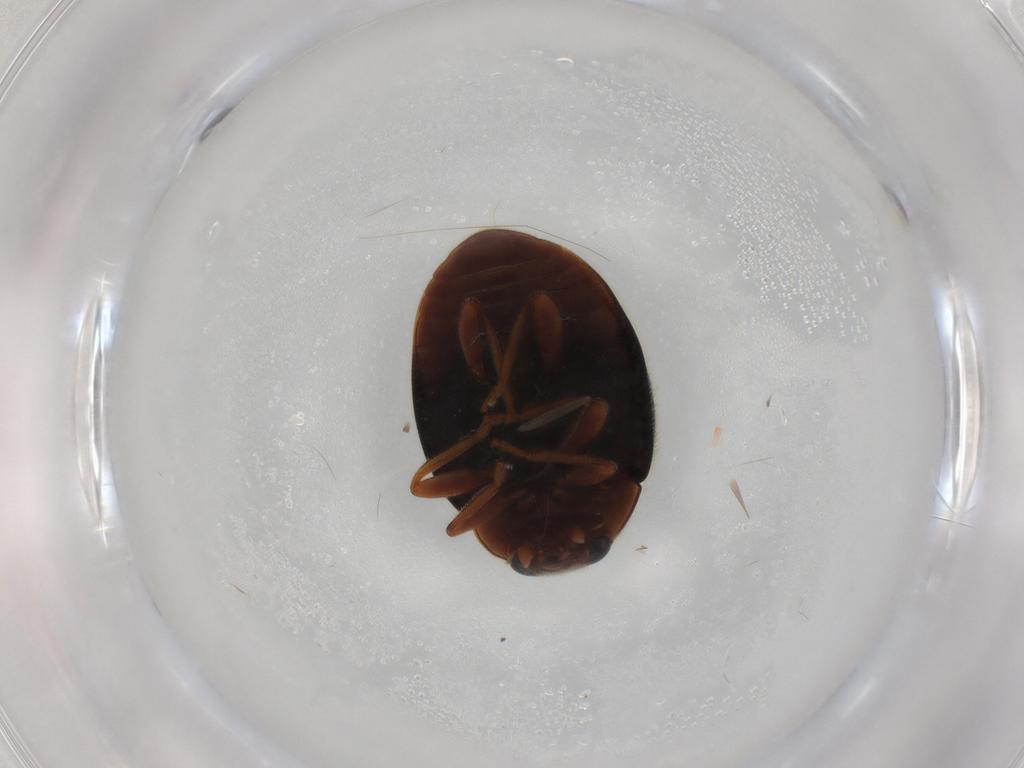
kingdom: Animalia
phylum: Arthropoda
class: Insecta
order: Coleoptera
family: Coccinellidae
